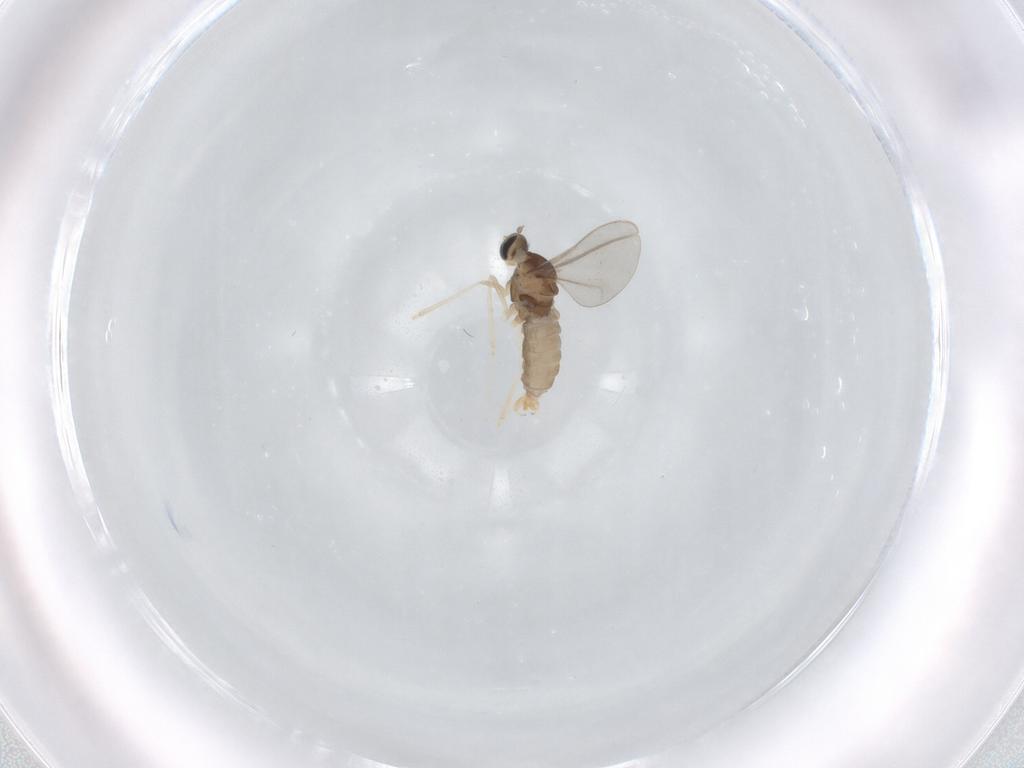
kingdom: Animalia
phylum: Arthropoda
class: Insecta
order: Diptera
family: Cecidomyiidae
